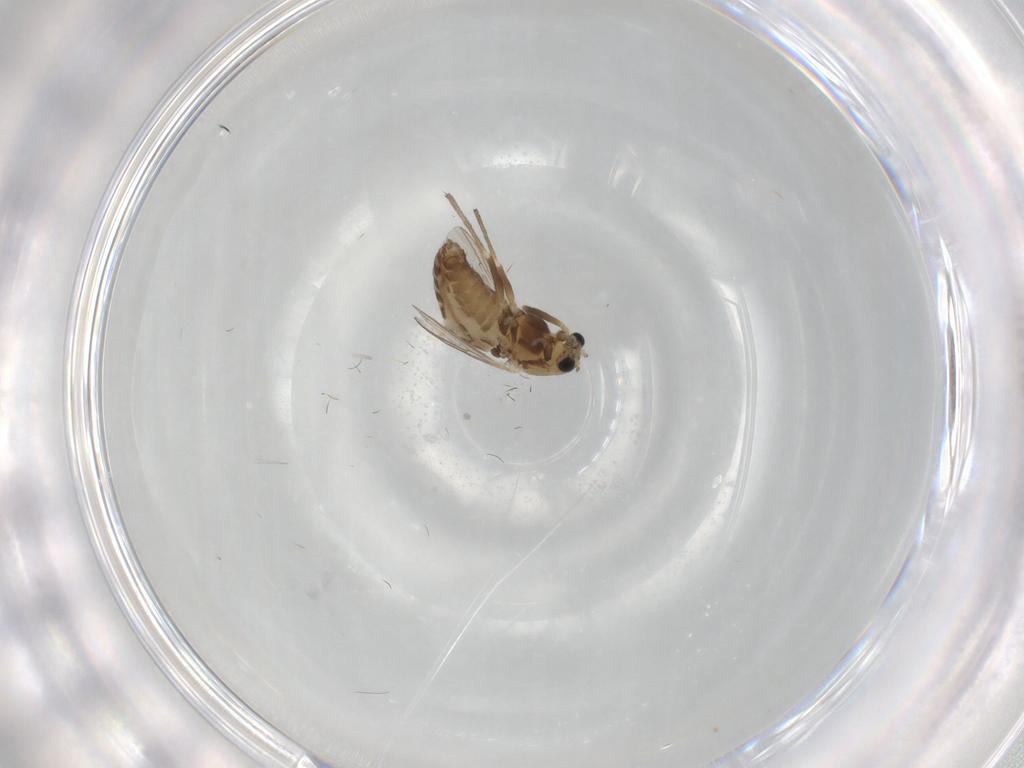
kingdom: Animalia
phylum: Arthropoda
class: Insecta
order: Diptera
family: Chironomidae
